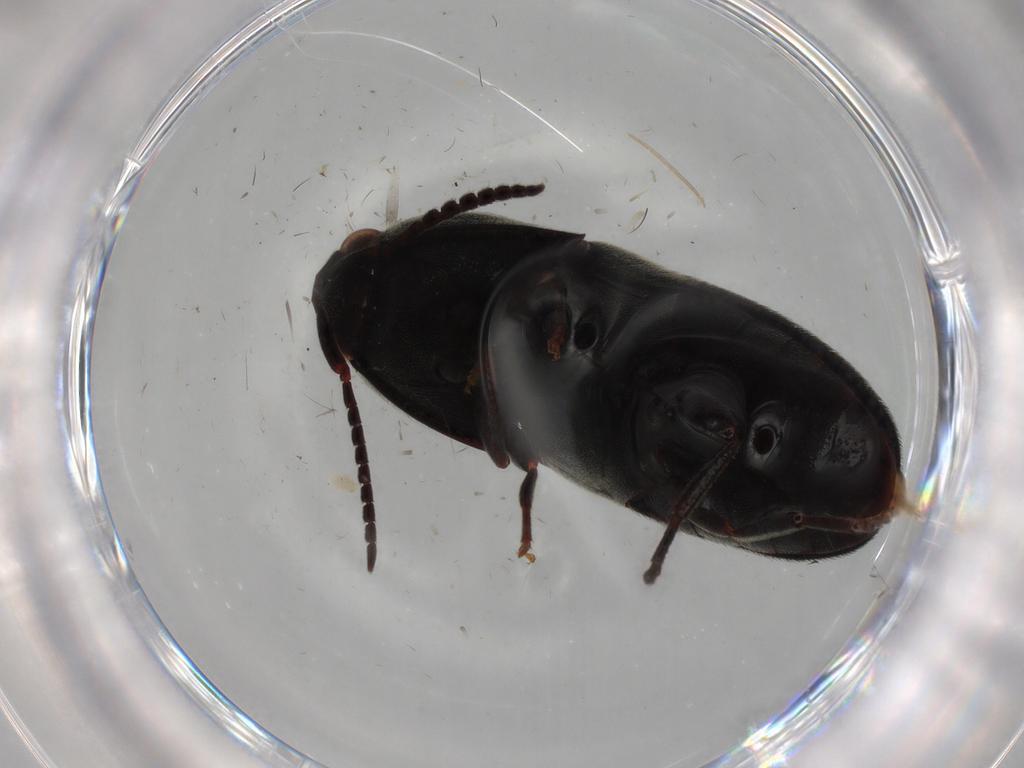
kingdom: Animalia
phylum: Arthropoda
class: Insecta
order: Coleoptera
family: Eucnemidae
